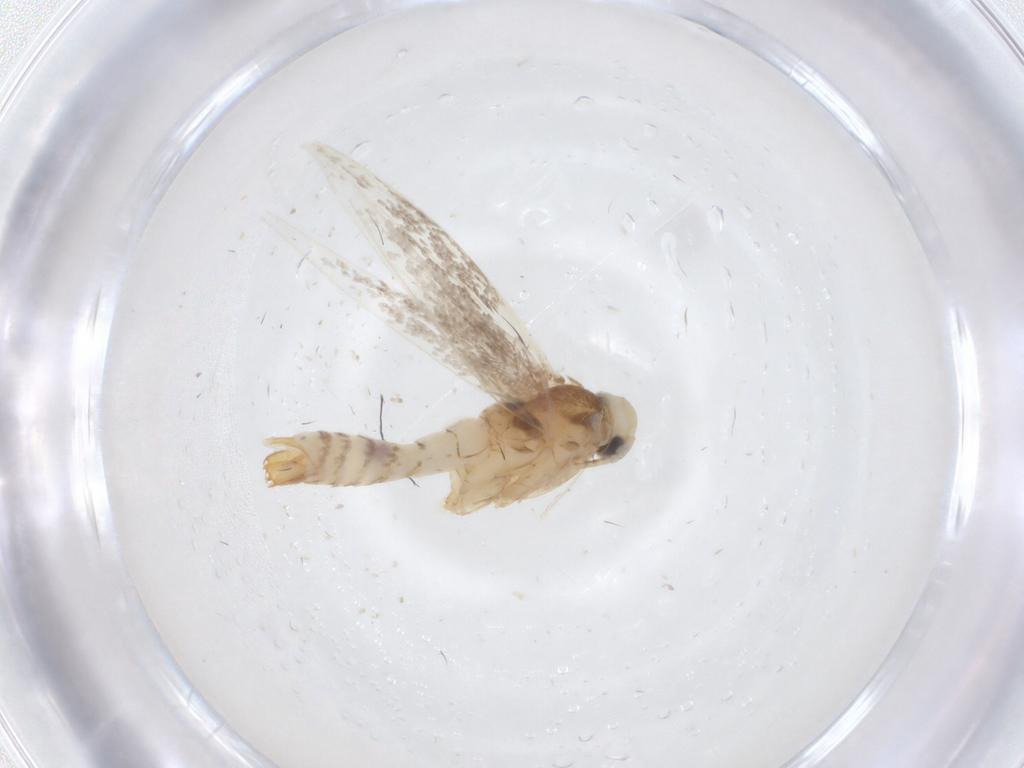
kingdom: Animalia
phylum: Arthropoda
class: Insecta
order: Lepidoptera
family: Gracillariidae
